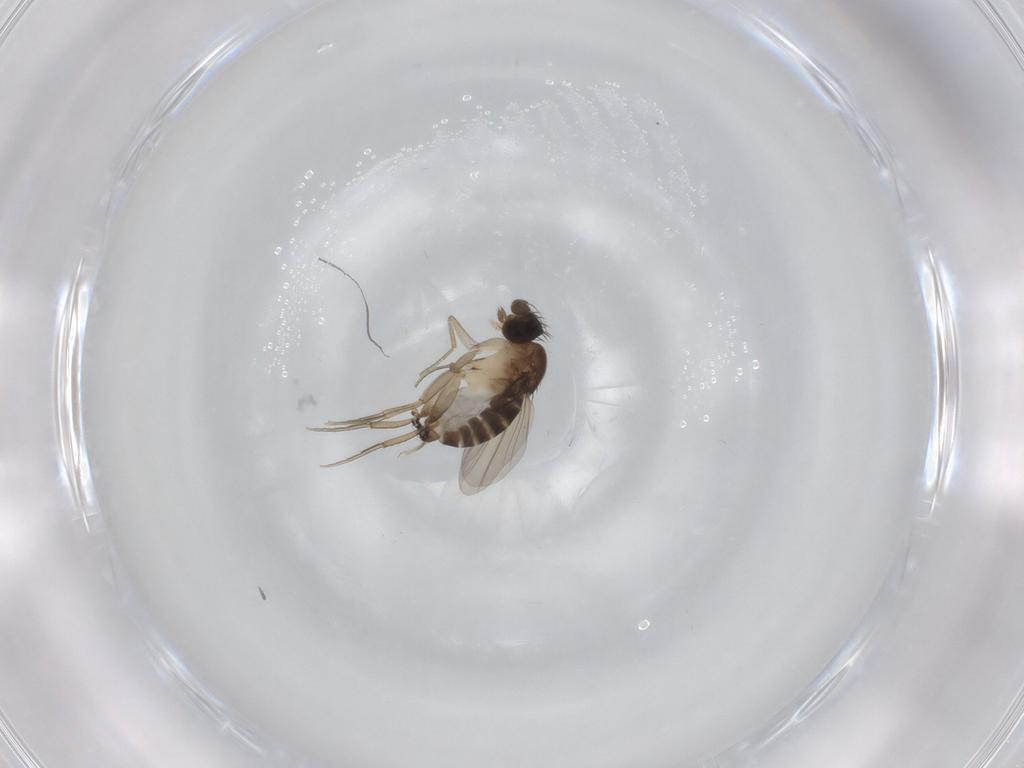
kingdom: Animalia
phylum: Arthropoda
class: Insecta
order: Diptera
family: Phoridae
